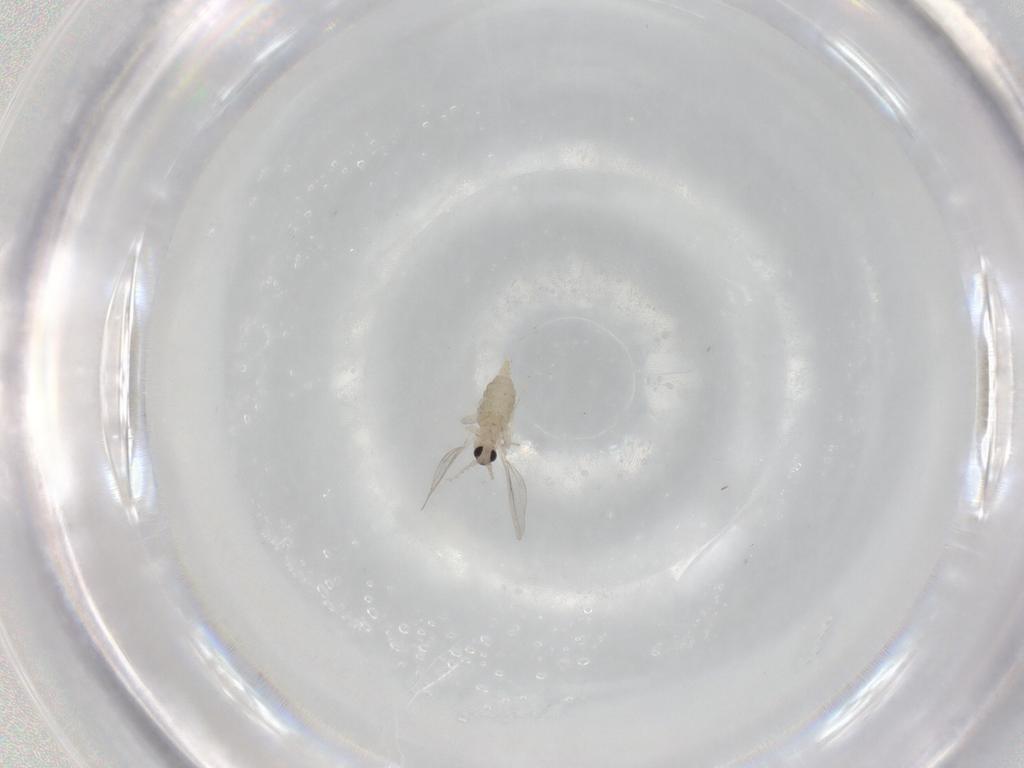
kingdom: Animalia
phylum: Arthropoda
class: Insecta
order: Diptera
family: Cecidomyiidae
